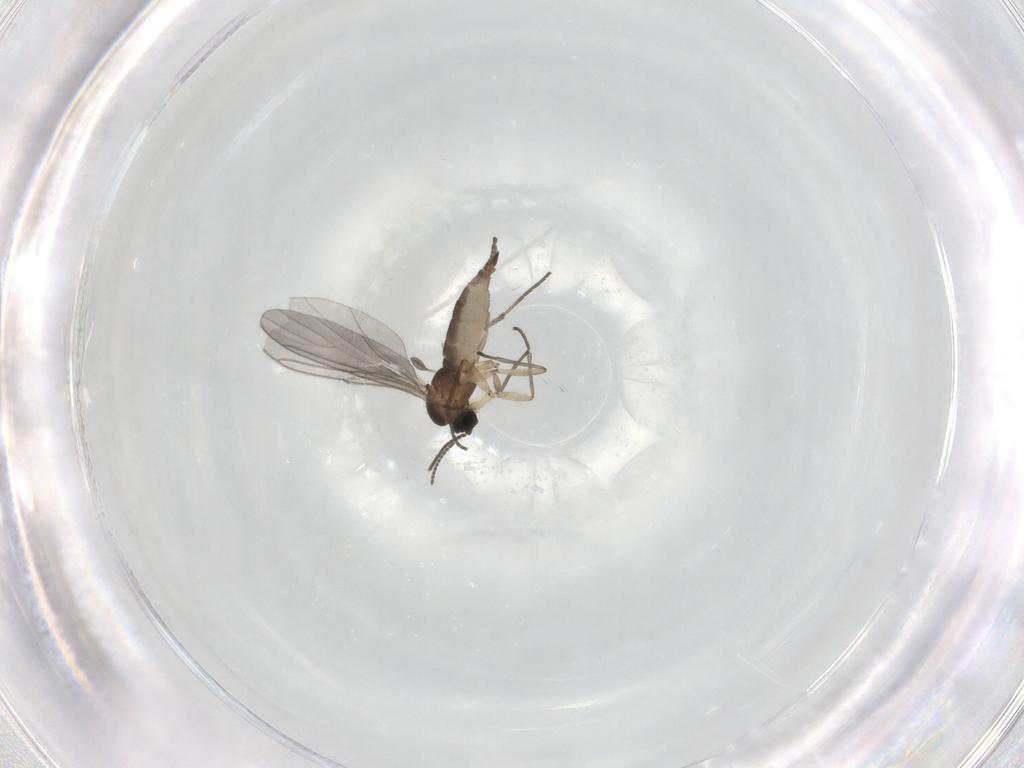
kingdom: Animalia
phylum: Arthropoda
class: Insecta
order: Diptera
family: Sciaridae
